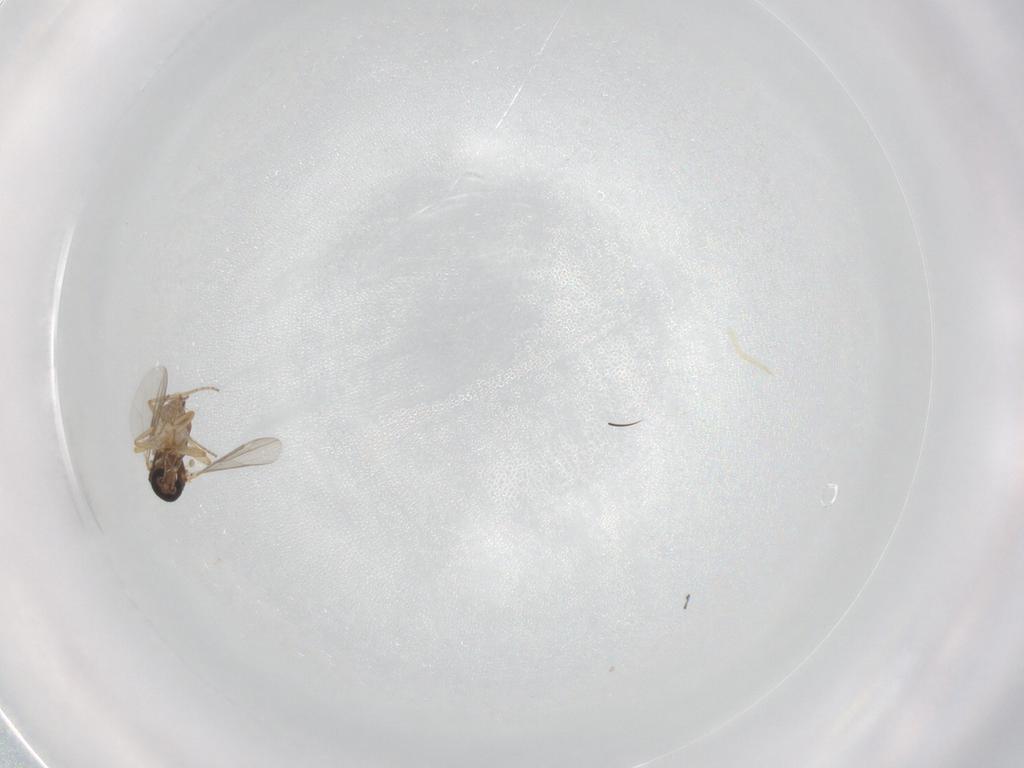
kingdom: Animalia
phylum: Arthropoda
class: Insecta
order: Diptera
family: Ceratopogonidae
